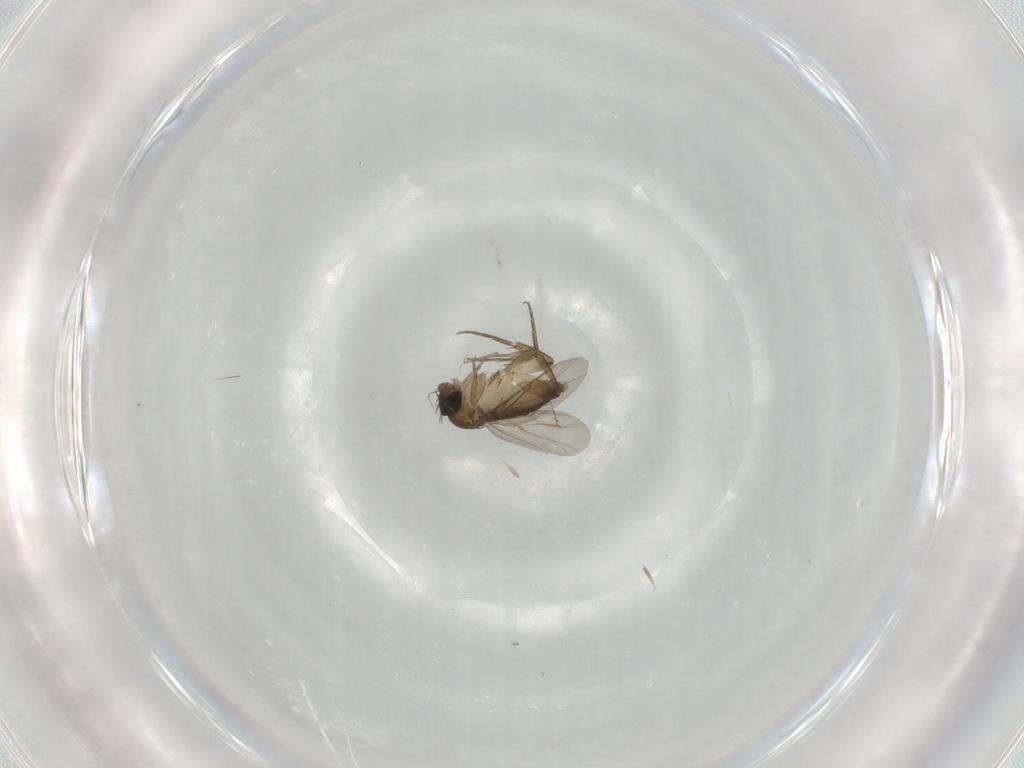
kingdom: Animalia
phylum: Arthropoda
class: Insecta
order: Diptera
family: Phoridae
